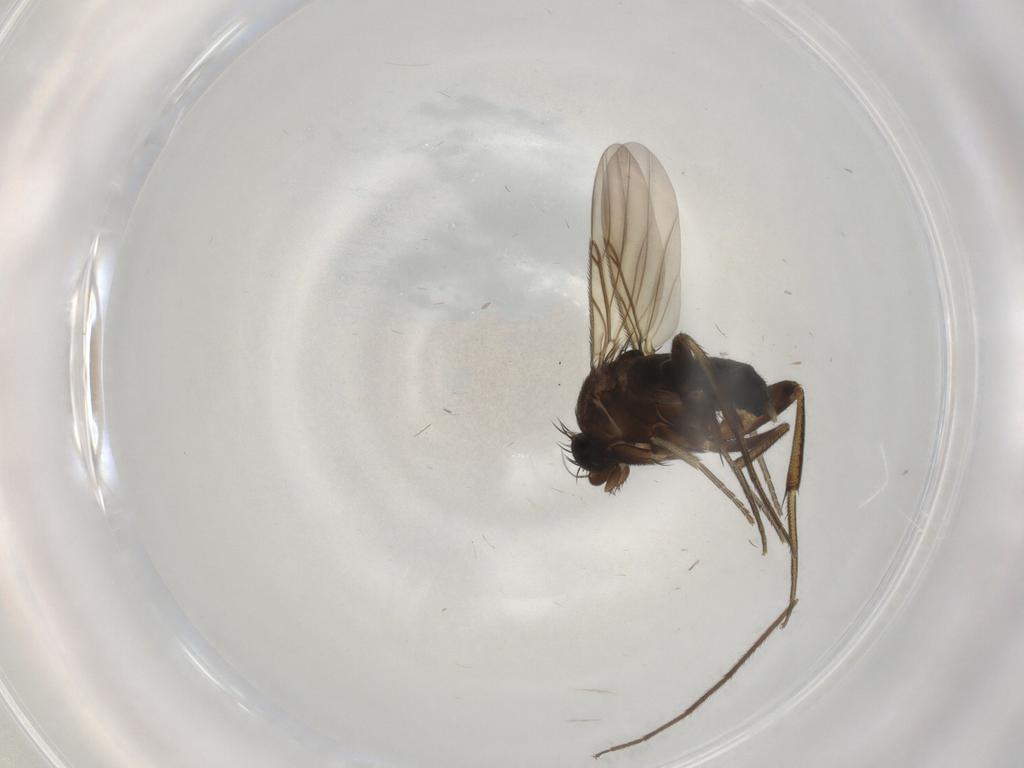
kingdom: Animalia
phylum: Arthropoda
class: Insecta
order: Diptera
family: Phoridae
